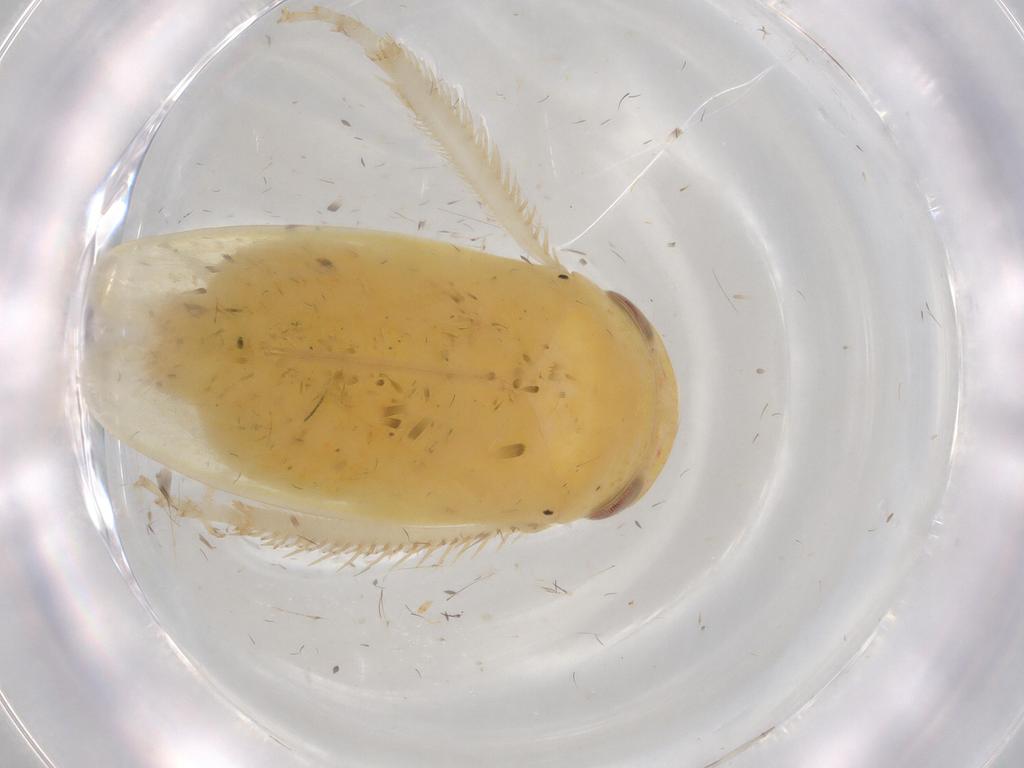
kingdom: Animalia
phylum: Arthropoda
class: Insecta
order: Hemiptera
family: Cicadellidae
